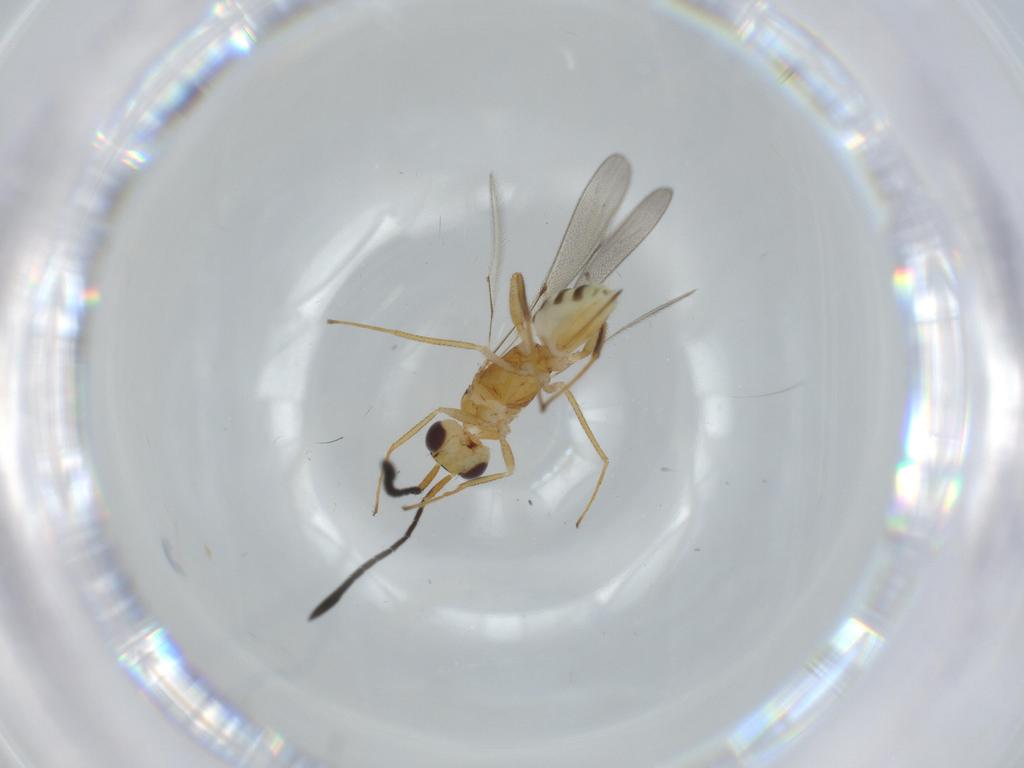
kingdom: Animalia
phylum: Arthropoda
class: Insecta
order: Hymenoptera
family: Mymaridae
